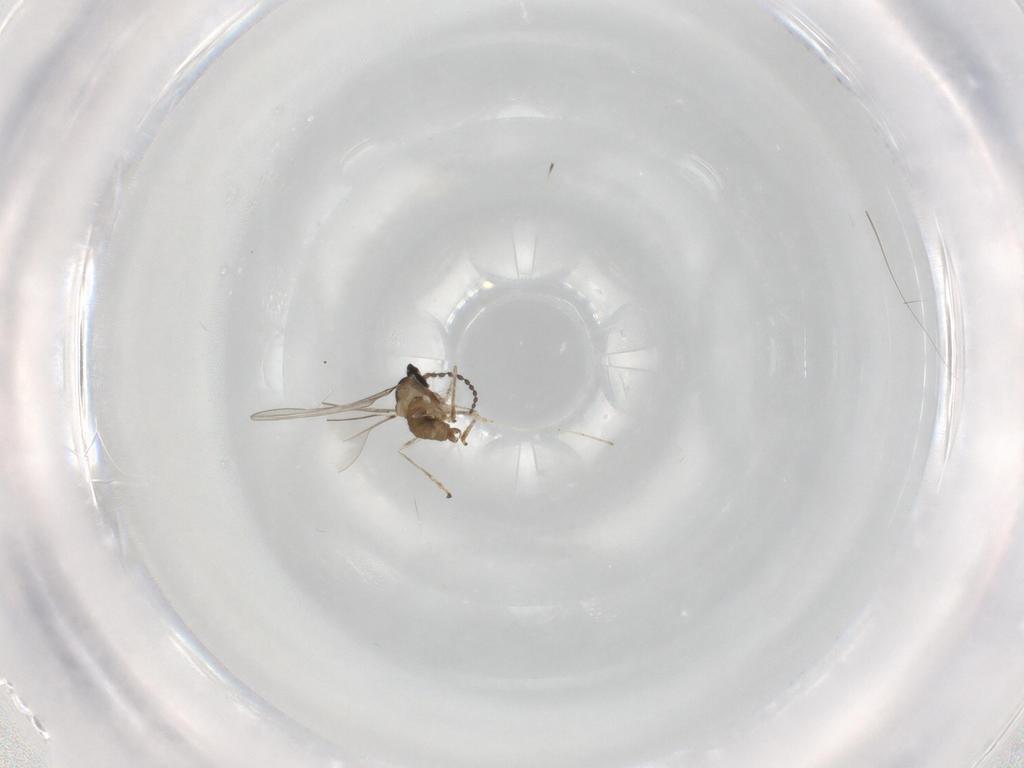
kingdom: Animalia
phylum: Arthropoda
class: Insecta
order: Diptera
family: Cecidomyiidae
